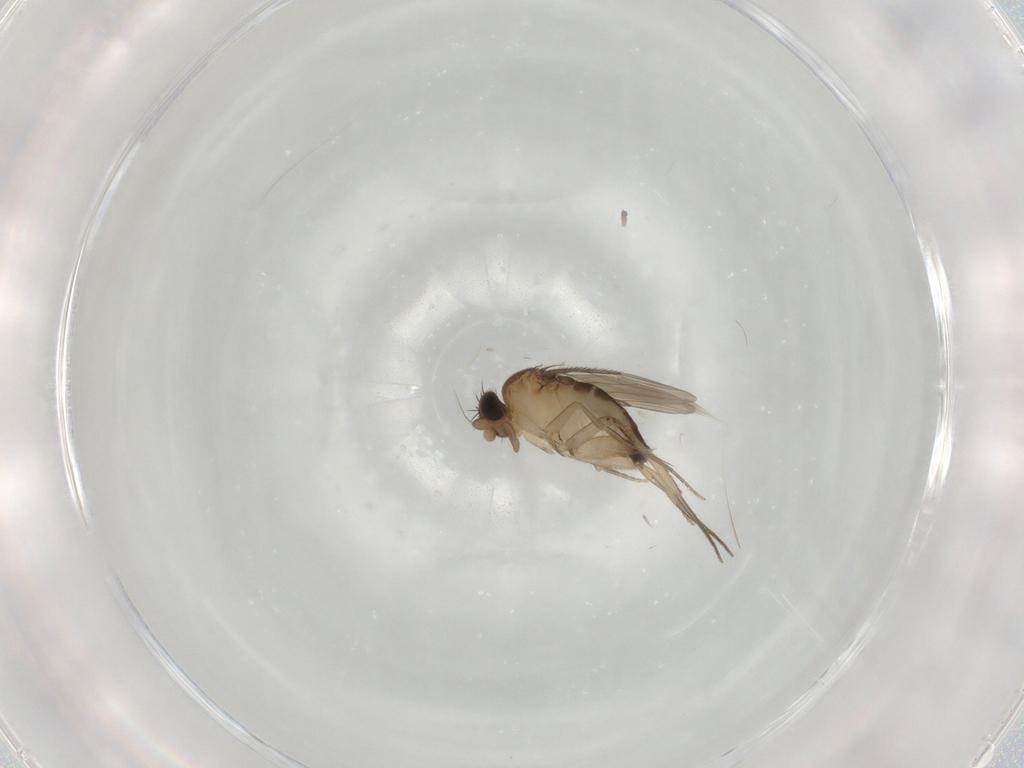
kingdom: Animalia
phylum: Arthropoda
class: Insecta
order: Diptera
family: Phoridae
